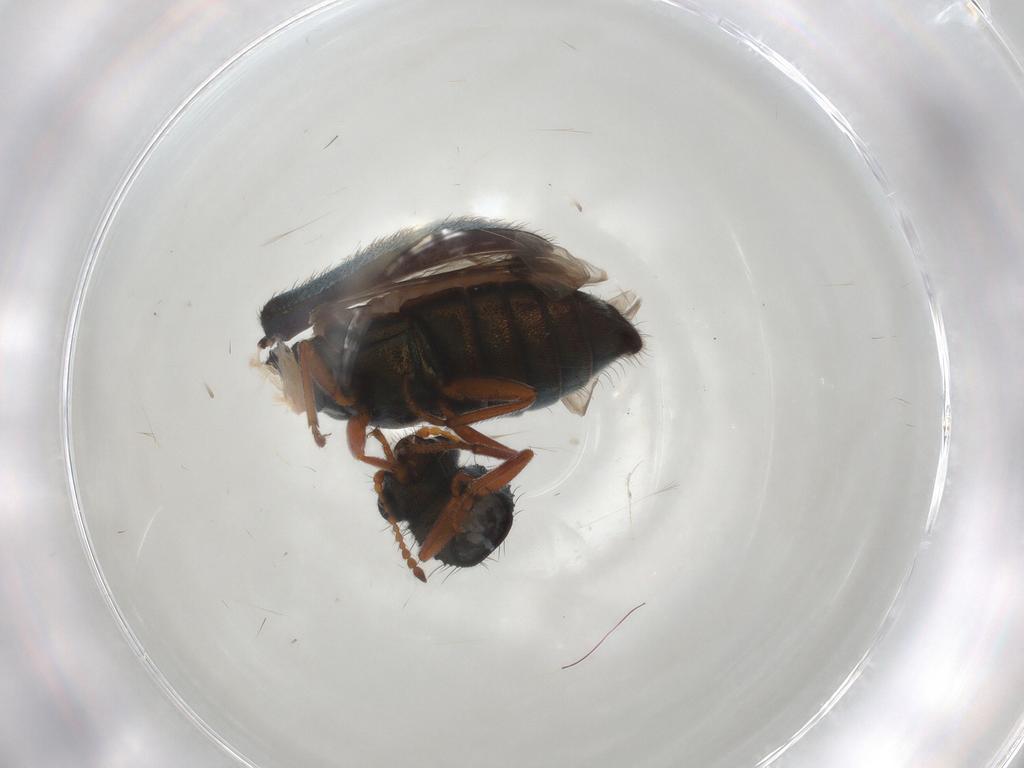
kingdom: Animalia
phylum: Arthropoda
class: Insecta
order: Coleoptera
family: Melyridae
